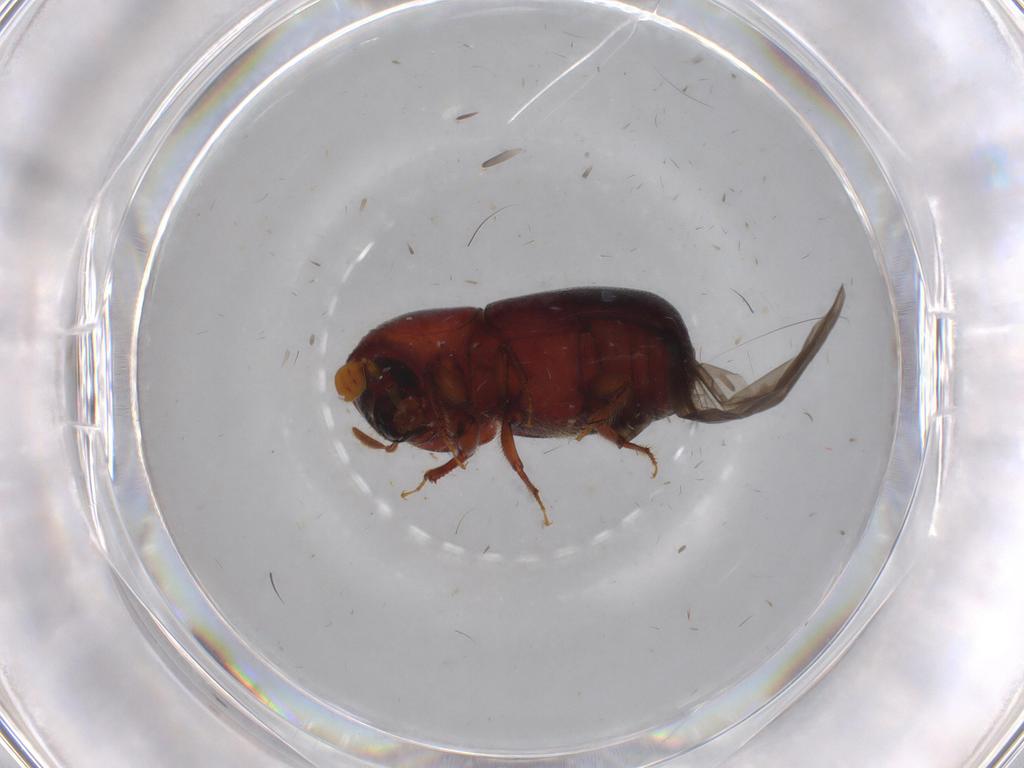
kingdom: Animalia
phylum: Arthropoda
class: Insecta
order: Coleoptera
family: Curculionidae
